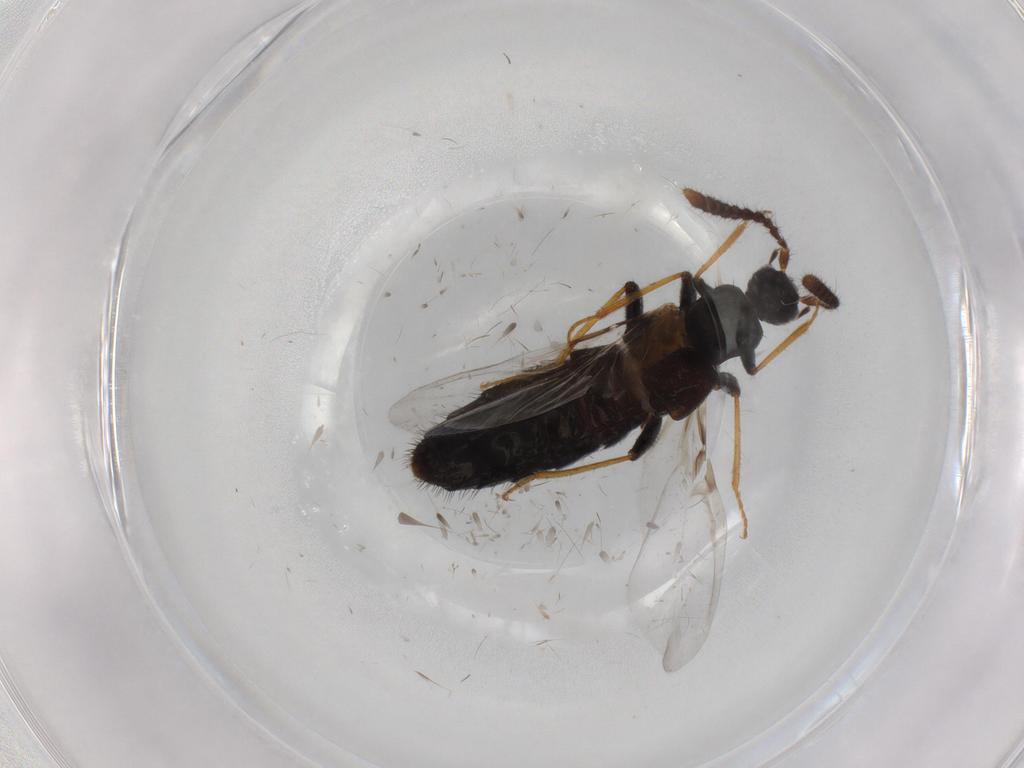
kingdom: Animalia
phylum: Arthropoda
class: Insecta
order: Coleoptera
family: Staphylinidae
